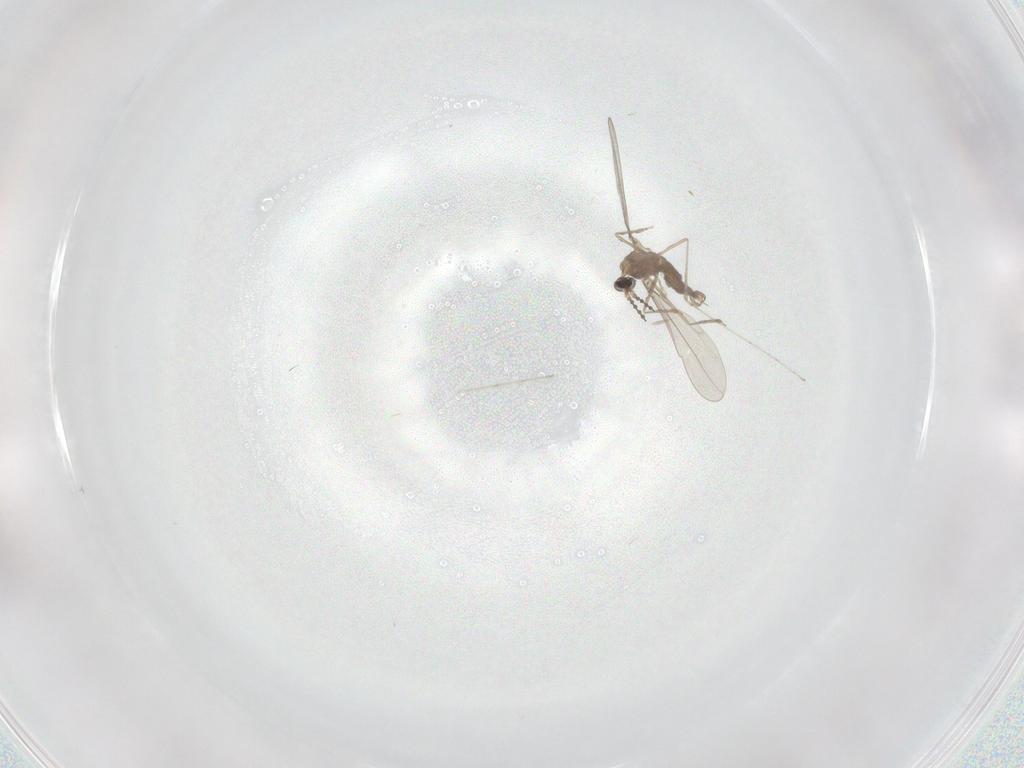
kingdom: Animalia
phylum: Arthropoda
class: Insecta
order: Diptera
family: Cecidomyiidae
